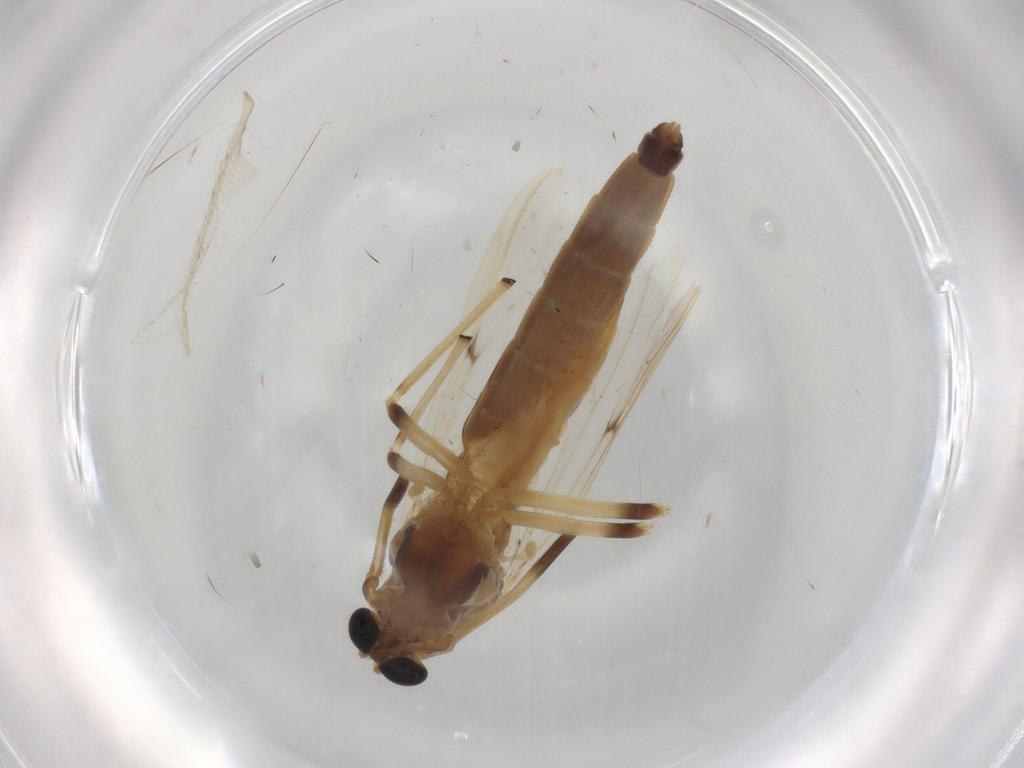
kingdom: Animalia
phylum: Arthropoda
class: Insecta
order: Diptera
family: Chironomidae
